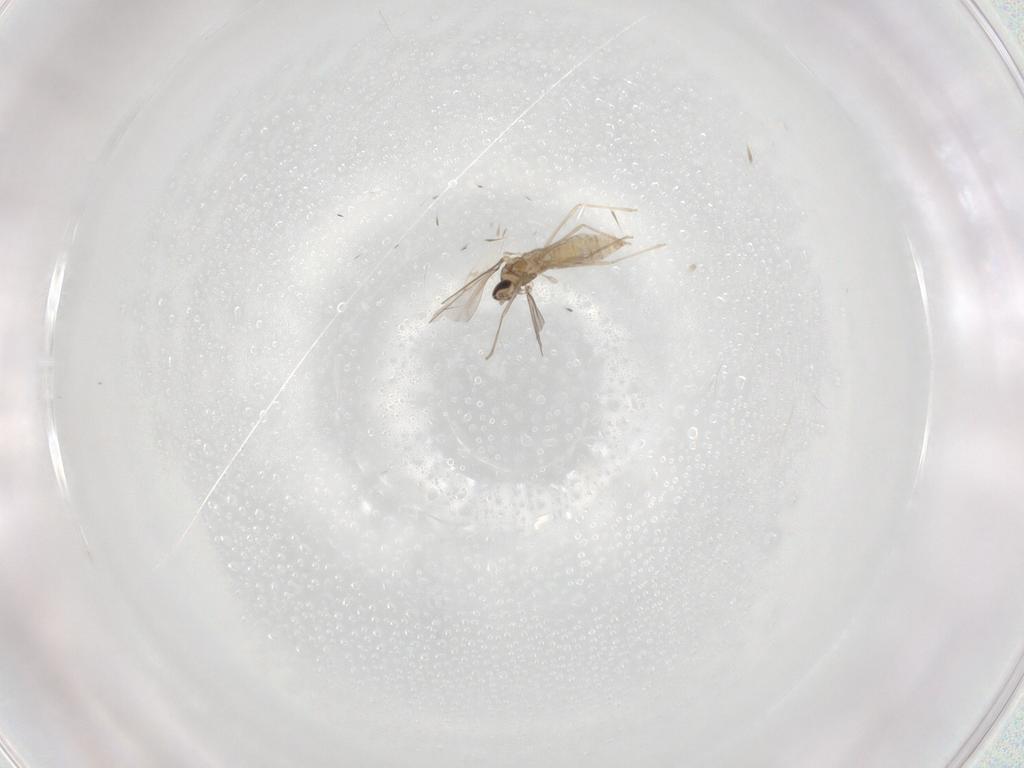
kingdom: Animalia
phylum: Arthropoda
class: Insecta
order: Diptera
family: Cecidomyiidae
